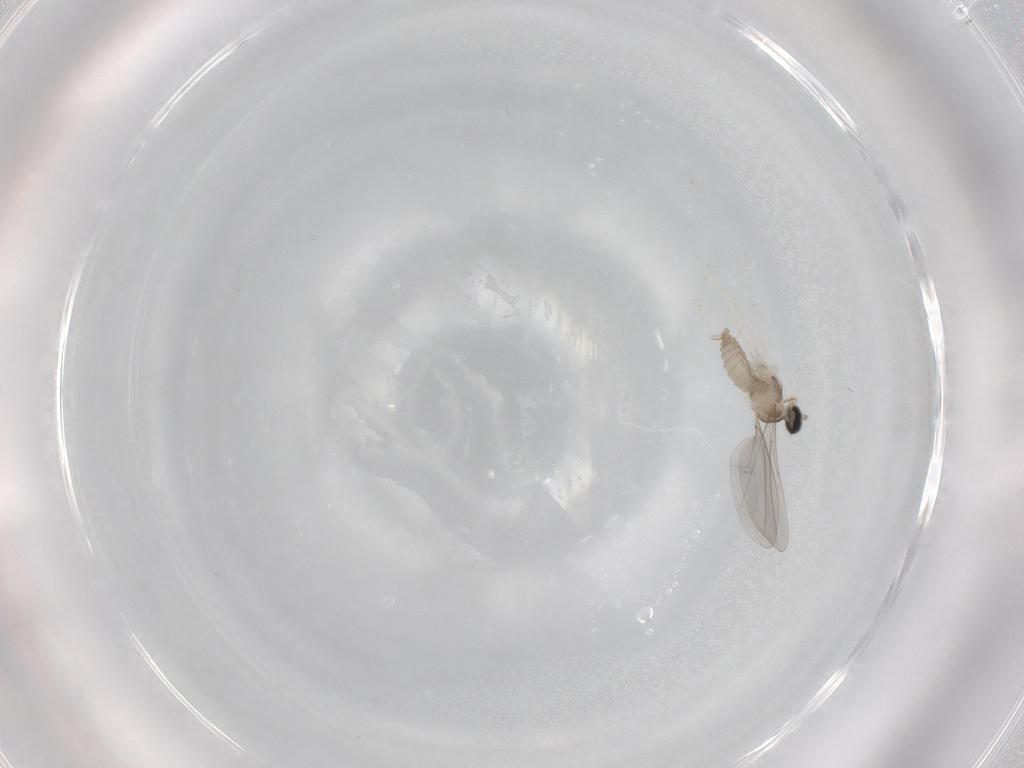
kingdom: Animalia
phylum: Arthropoda
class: Insecta
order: Diptera
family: Cecidomyiidae
